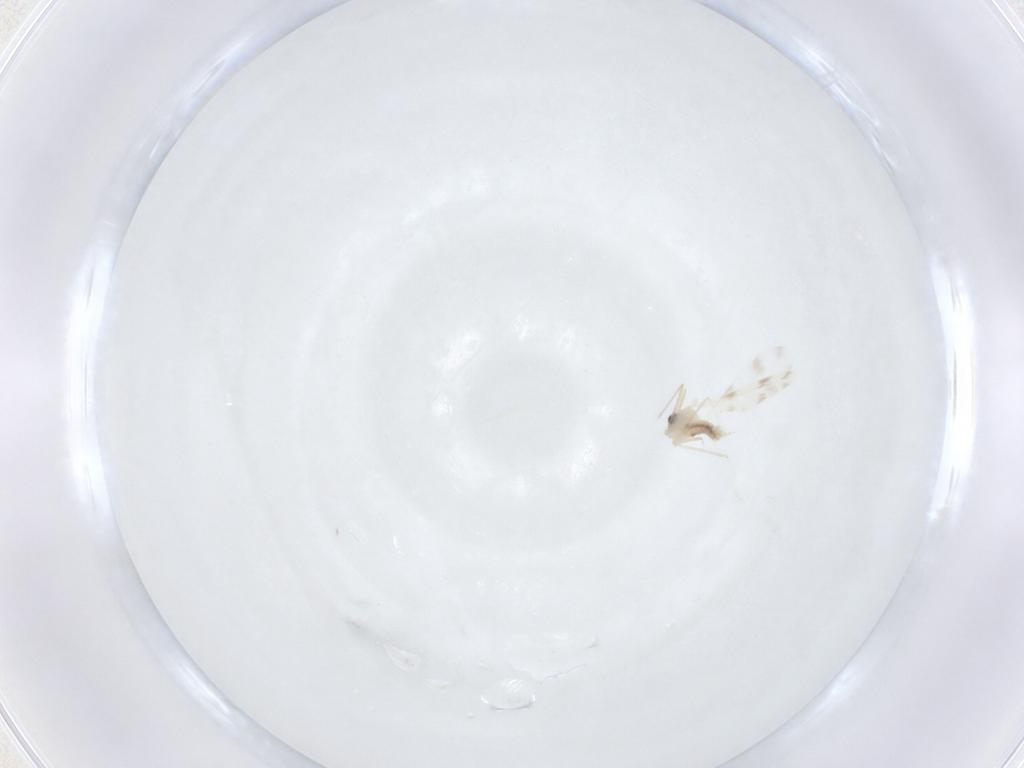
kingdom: Animalia
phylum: Arthropoda
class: Insecta
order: Diptera
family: Cecidomyiidae
